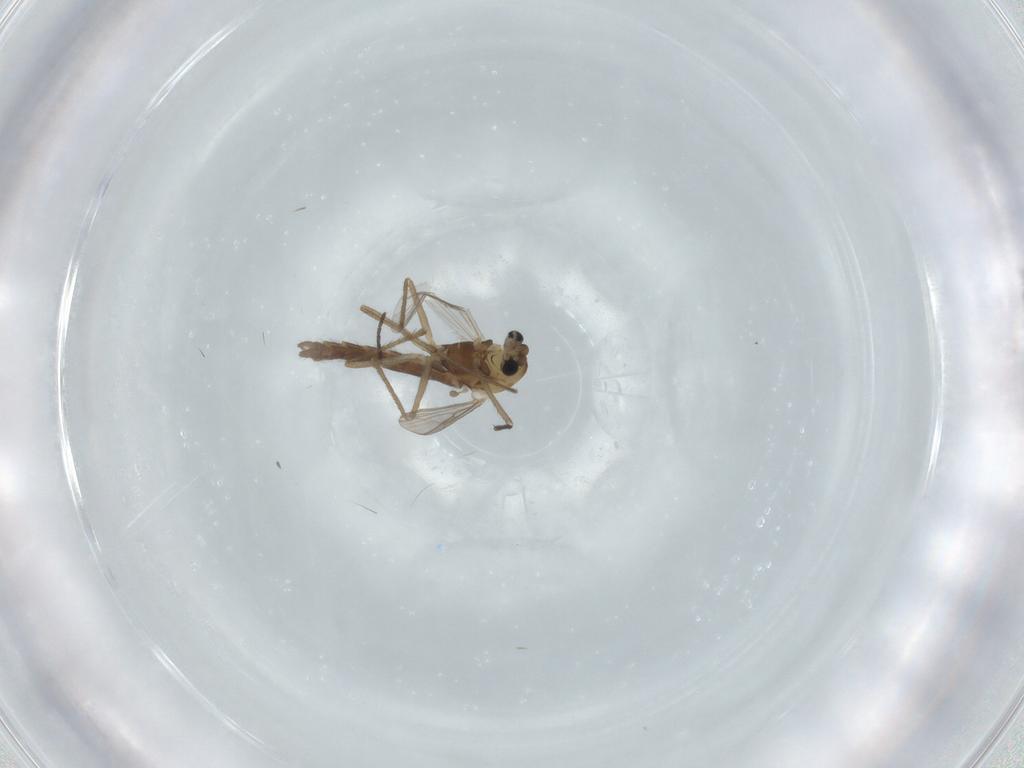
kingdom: Animalia
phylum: Arthropoda
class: Insecta
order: Diptera
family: Chironomidae
